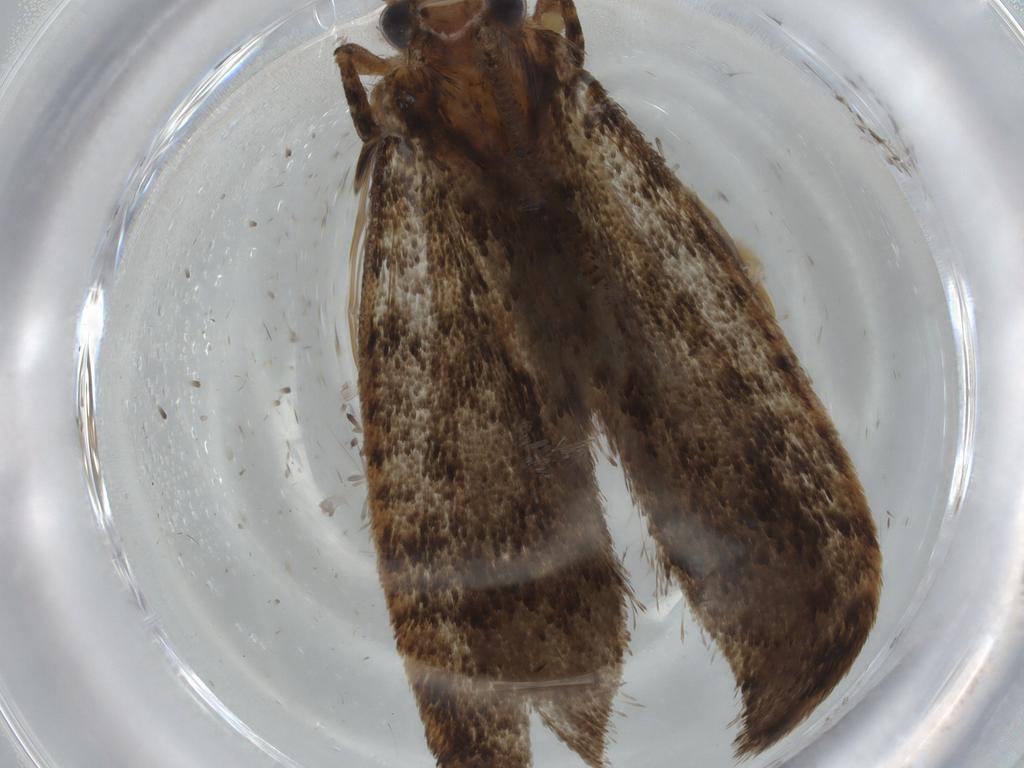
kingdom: Animalia
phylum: Arthropoda
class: Insecta
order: Lepidoptera
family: Tineidae
